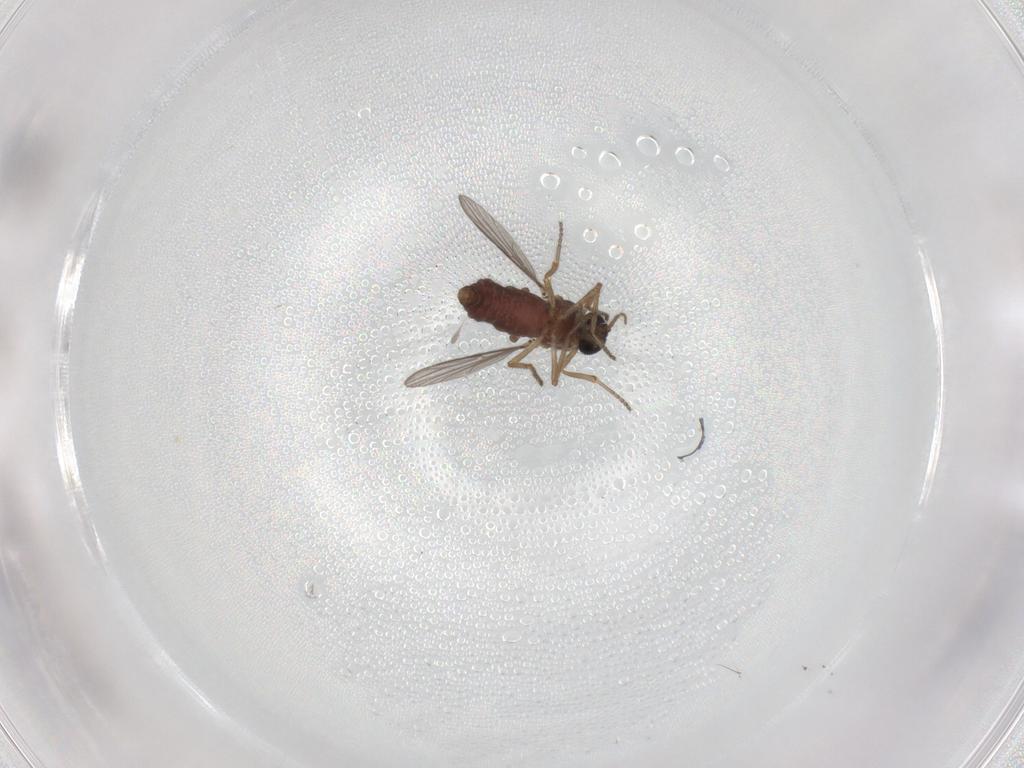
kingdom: Animalia
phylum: Arthropoda
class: Insecta
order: Diptera
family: Ceratopogonidae
